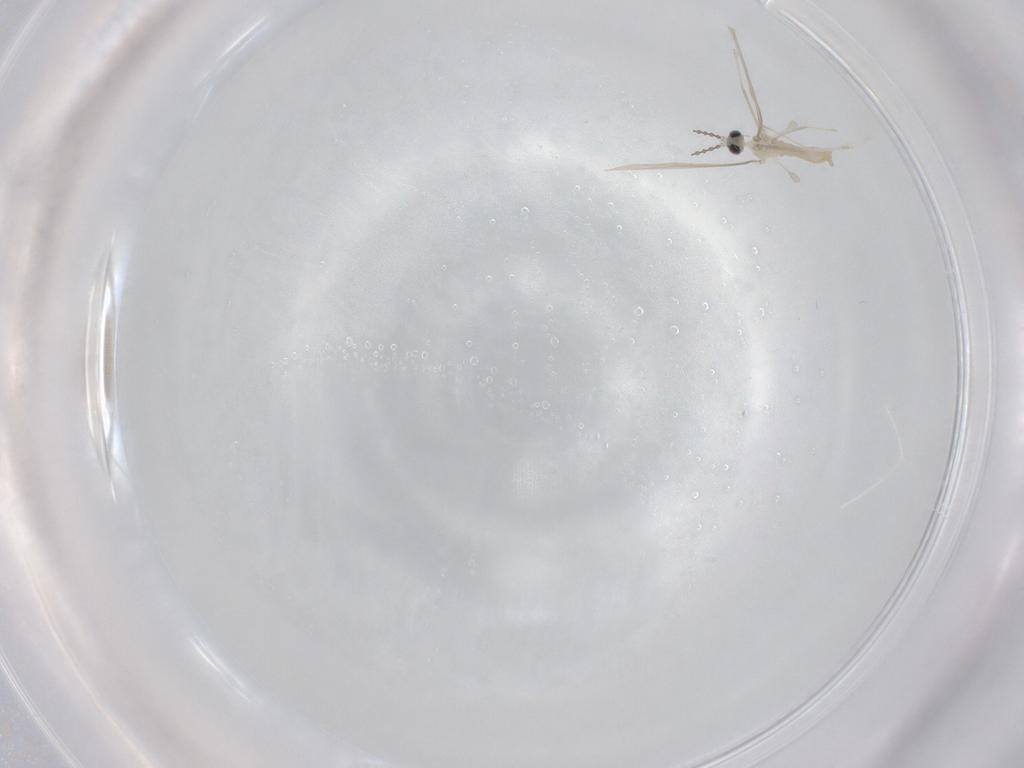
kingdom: Animalia
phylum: Arthropoda
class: Insecta
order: Diptera
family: Cecidomyiidae
